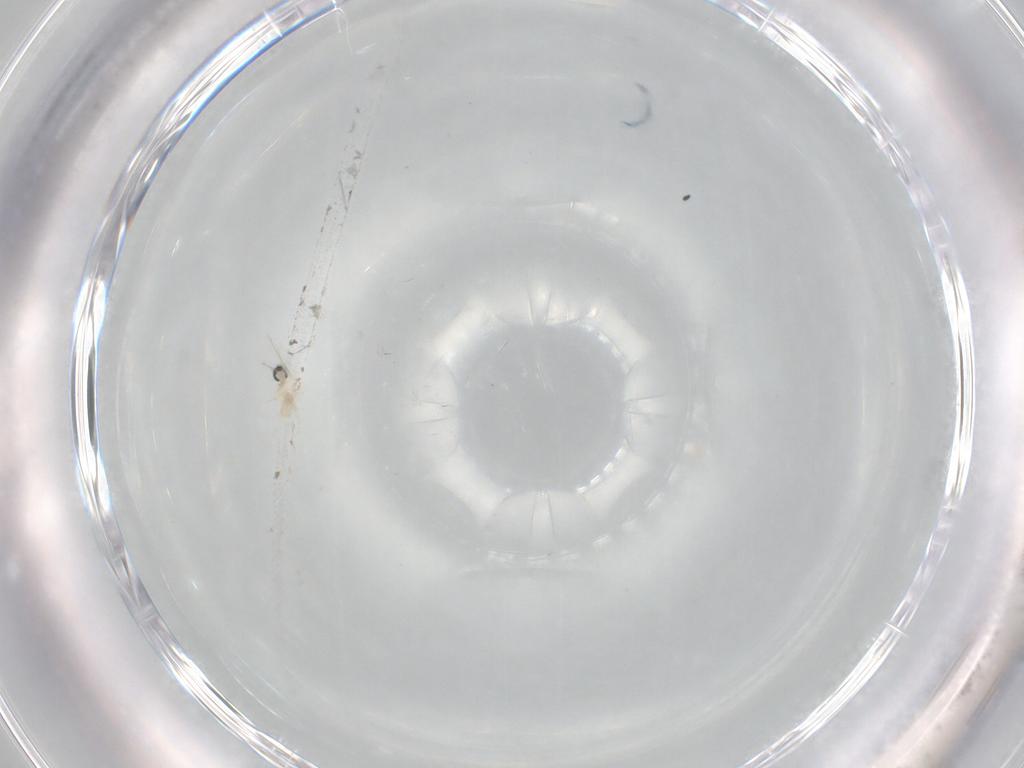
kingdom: Animalia
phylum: Arthropoda
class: Insecta
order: Diptera
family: Cecidomyiidae
